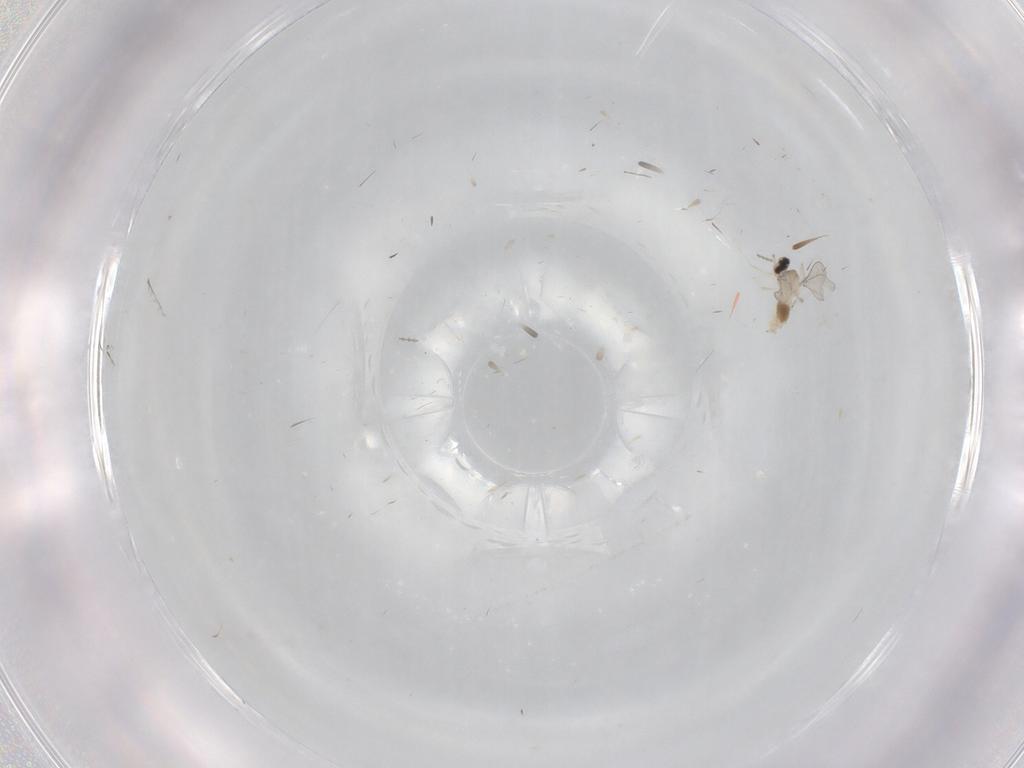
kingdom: Animalia
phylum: Arthropoda
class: Insecta
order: Diptera
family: Cecidomyiidae
